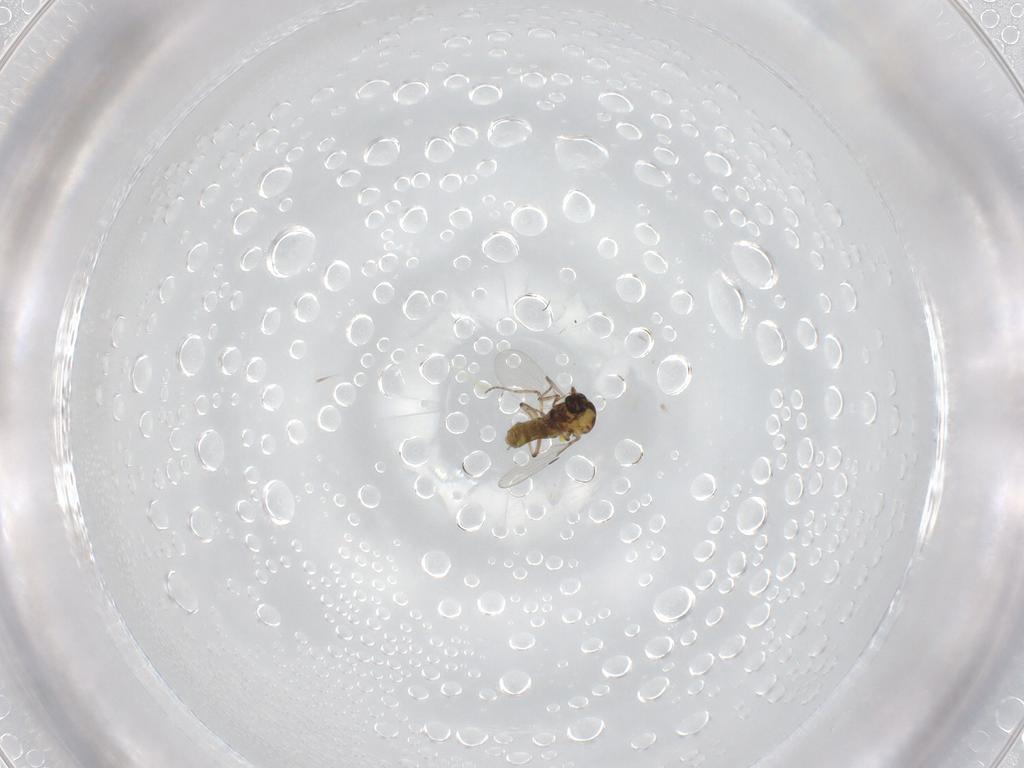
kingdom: Animalia
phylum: Arthropoda
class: Insecta
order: Diptera
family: Ceratopogonidae
